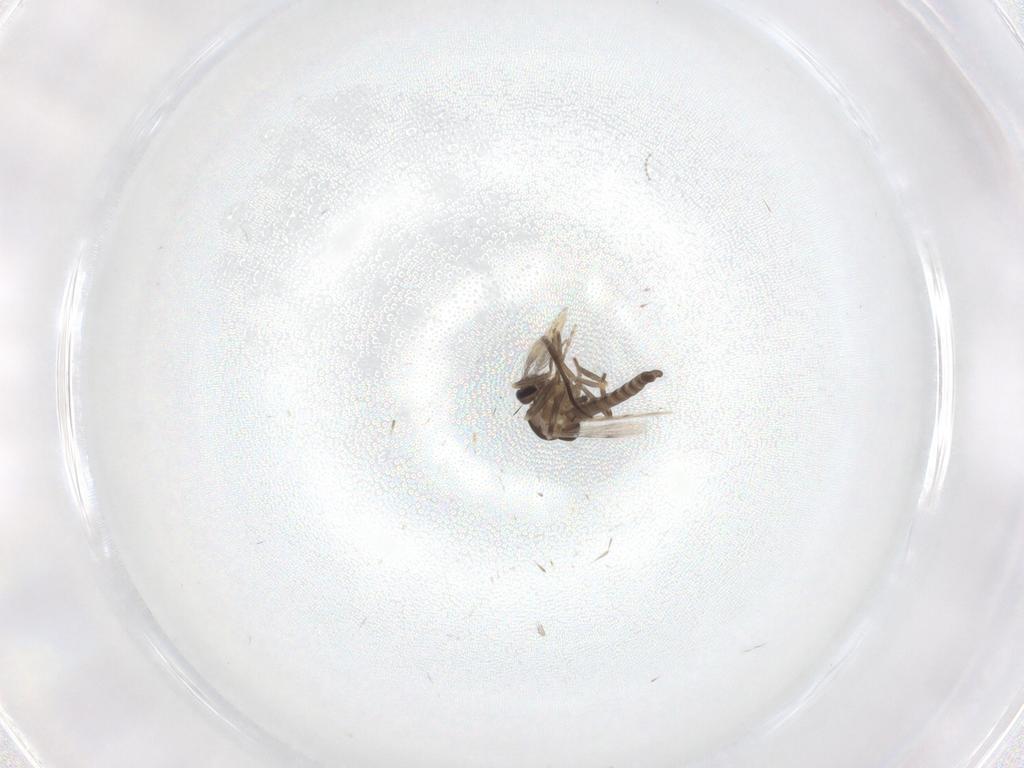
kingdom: Animalia
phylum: Arthropoda
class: Insecta
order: Diptera
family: Ceratopogonidae
